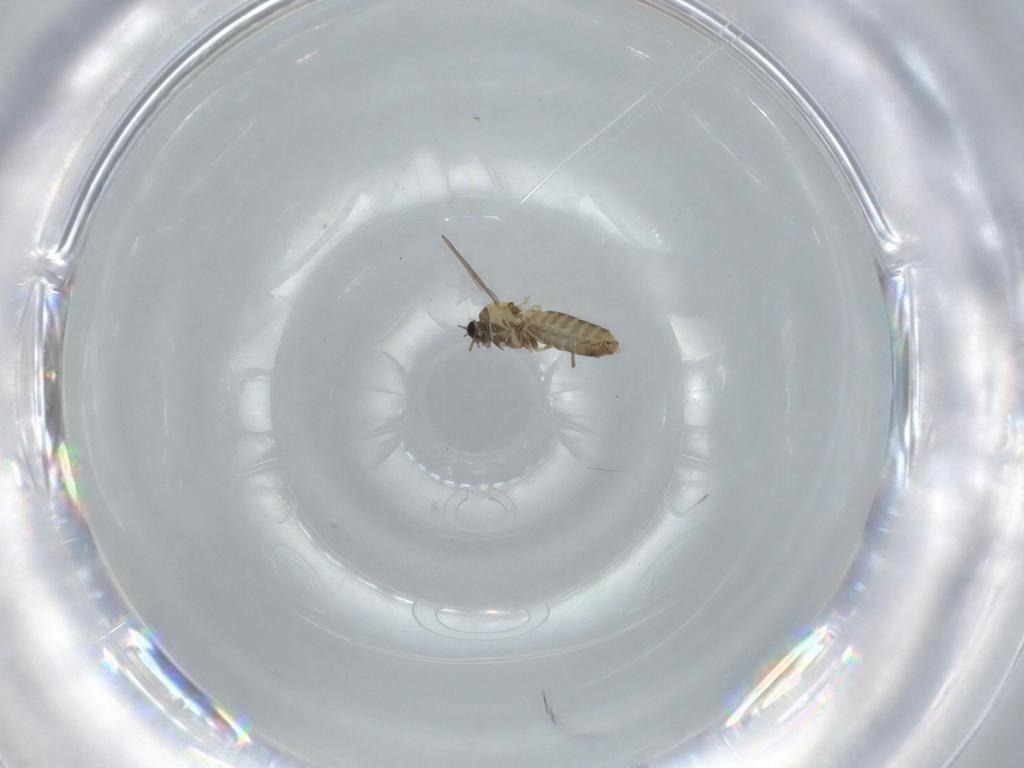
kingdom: Animalia
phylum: Arthropoda
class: Insecta
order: Diptera
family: Chironomidae
